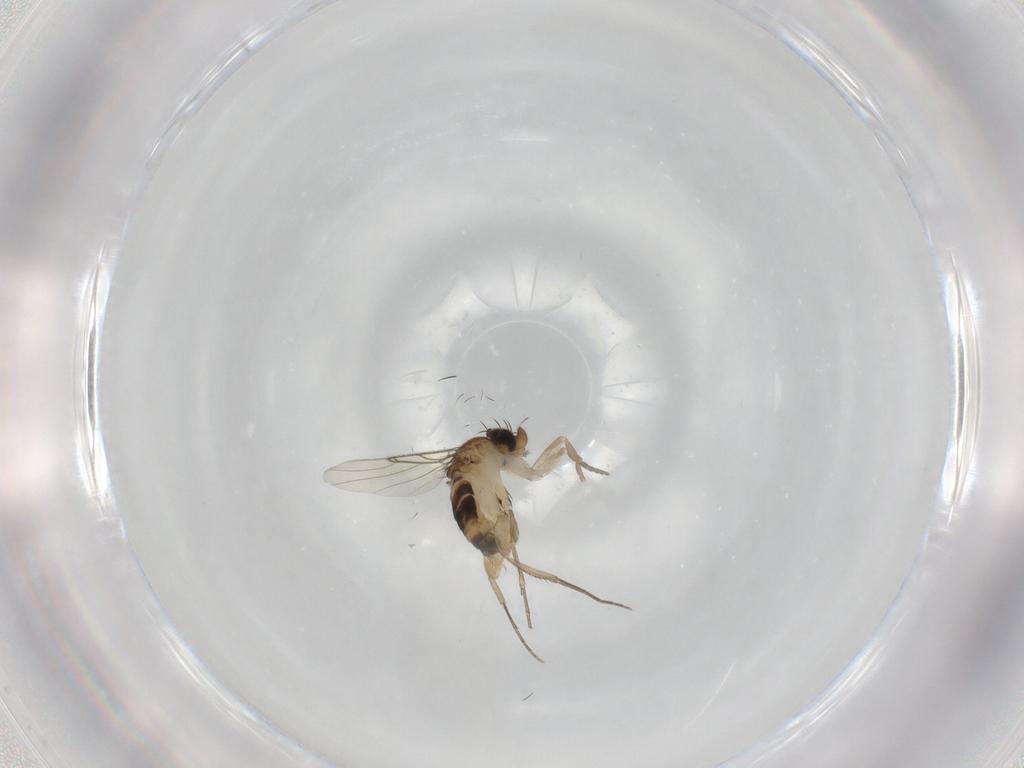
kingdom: Animalia
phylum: Arthropoda
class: Insecta
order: Diptera
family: Phoridae
